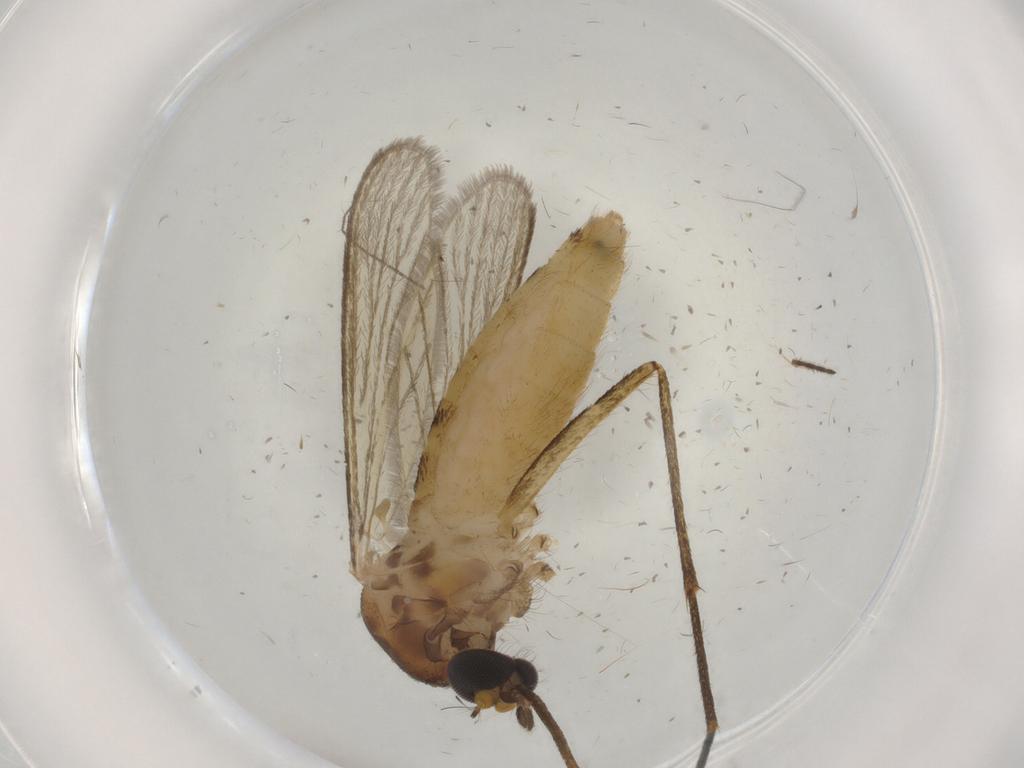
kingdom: Animalia
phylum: Arthropoda
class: Insecta
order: Diptera
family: Culicidae
